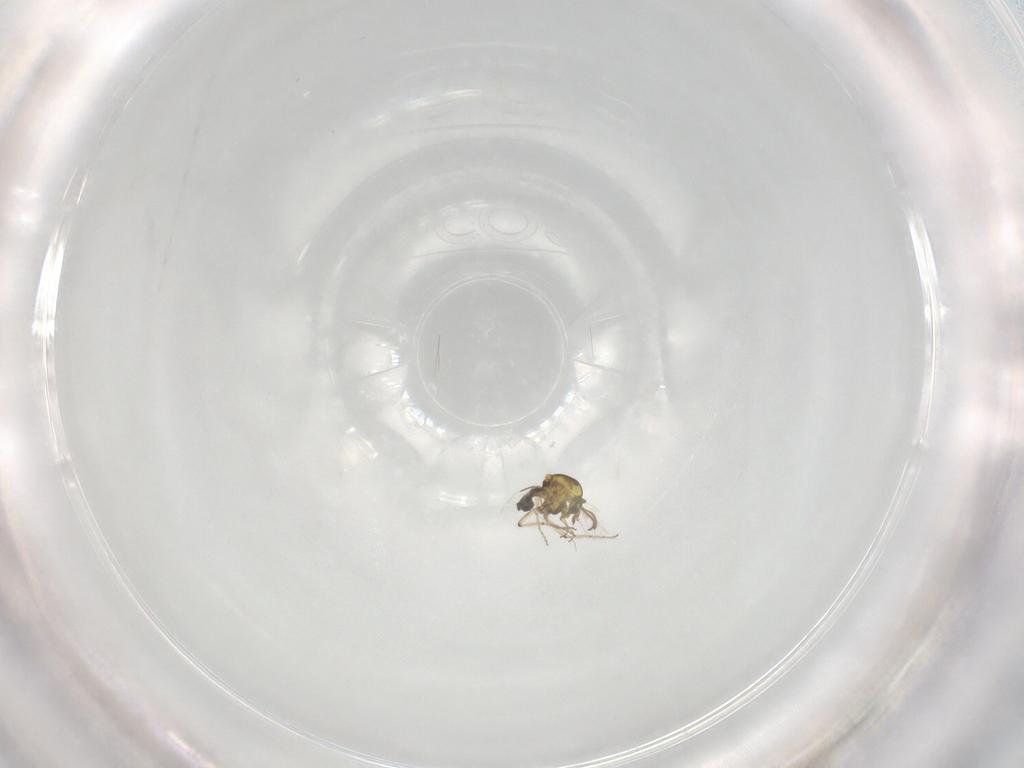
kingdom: Animalia
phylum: Arthropoda
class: Insecta
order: Diptera
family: Ceratopogonidae
